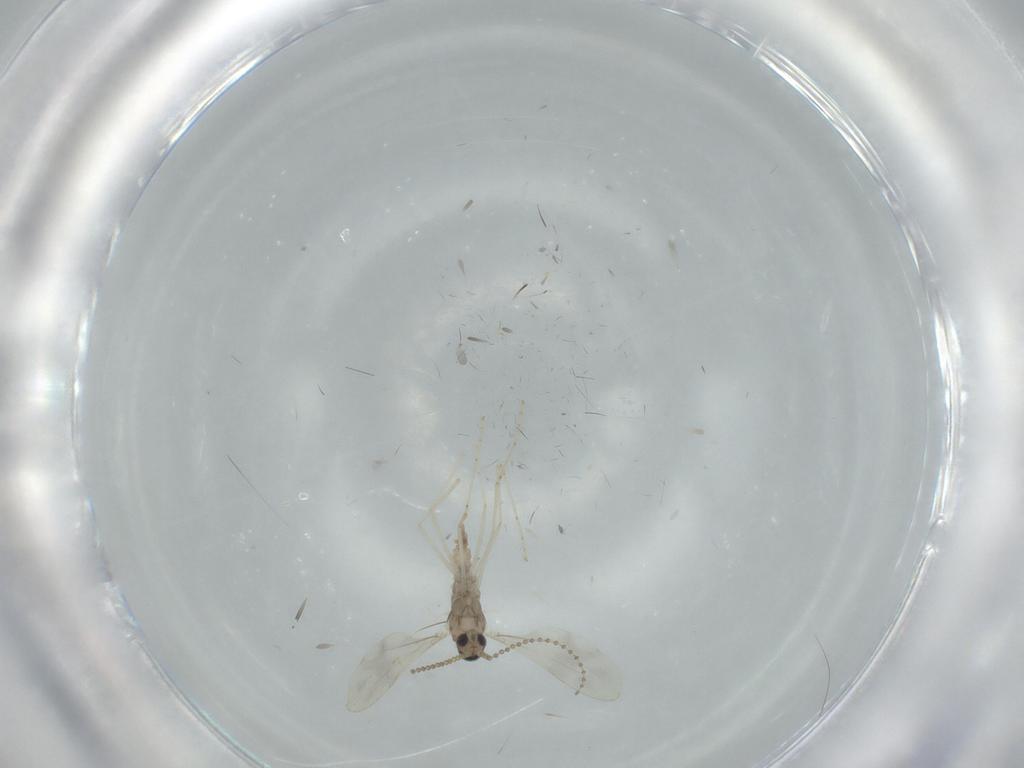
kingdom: Animalia
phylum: Arthropoda
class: Insecta
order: Diptera
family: Cecidomyiidae
